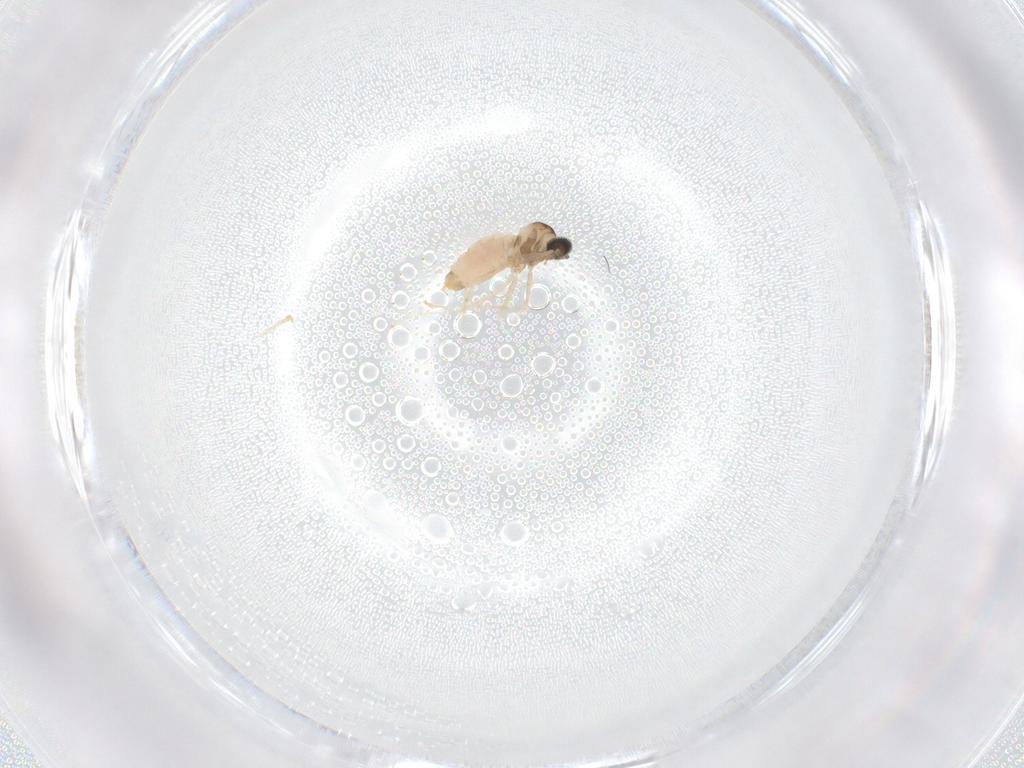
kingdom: Animalia
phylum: Arthropoda
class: Insecta
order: Diptera
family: Cecidomyiidae
